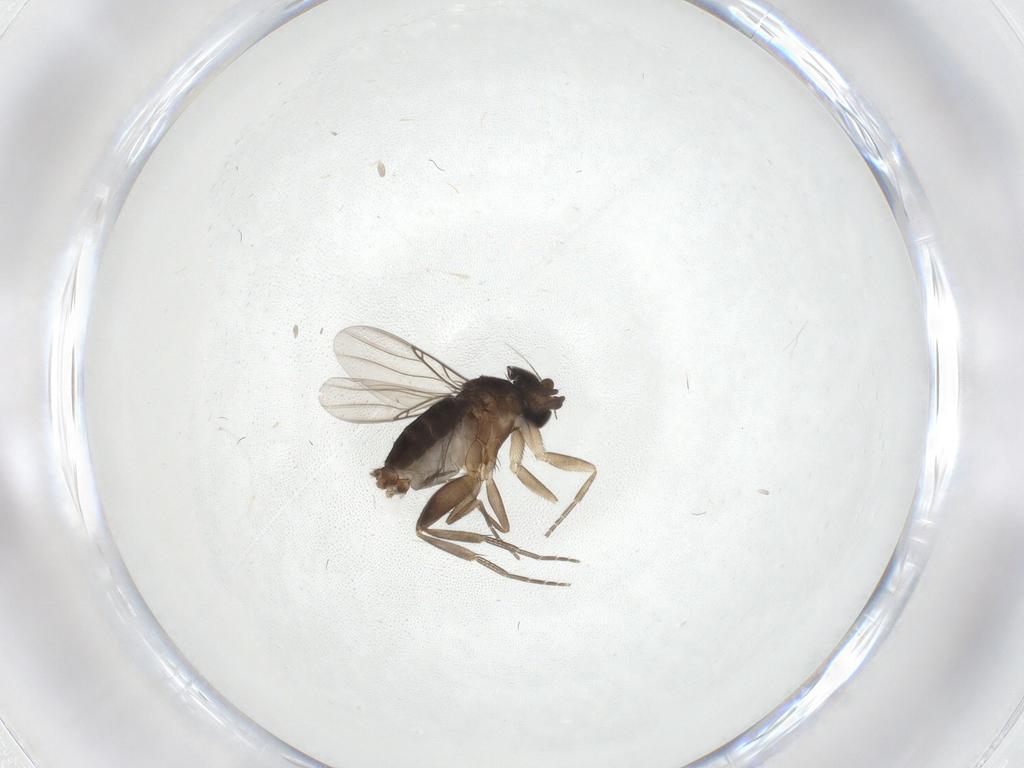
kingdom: Animalia
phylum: Arthropoda
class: Insecta
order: Diptera
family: Phoridae
